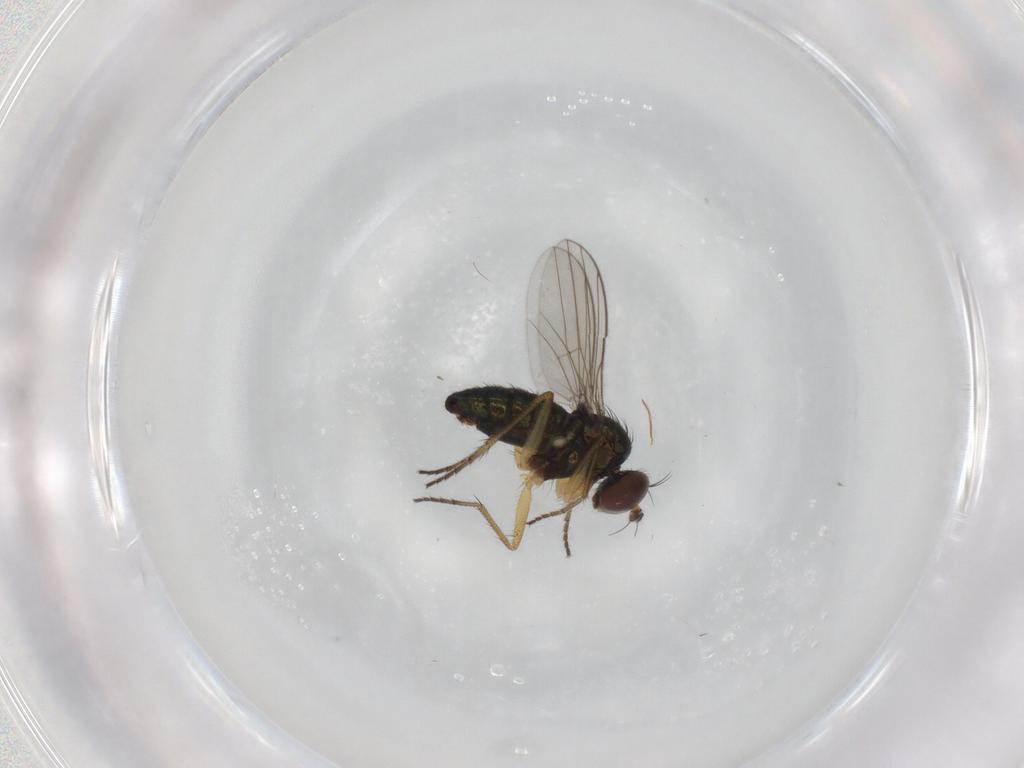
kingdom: Animalia
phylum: Arthropoda
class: Insecta
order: Diptera
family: Dolichopodidae
